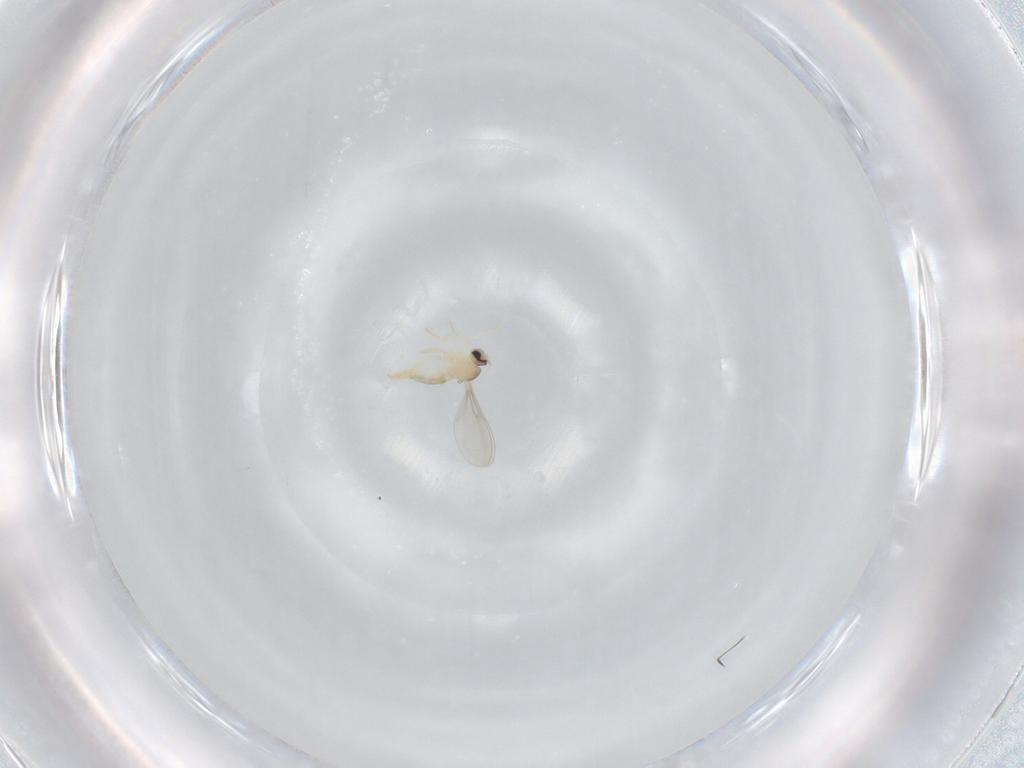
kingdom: Animalia
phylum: Arthropoda
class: Insecta
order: Diptera
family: Cecidomyiidae
